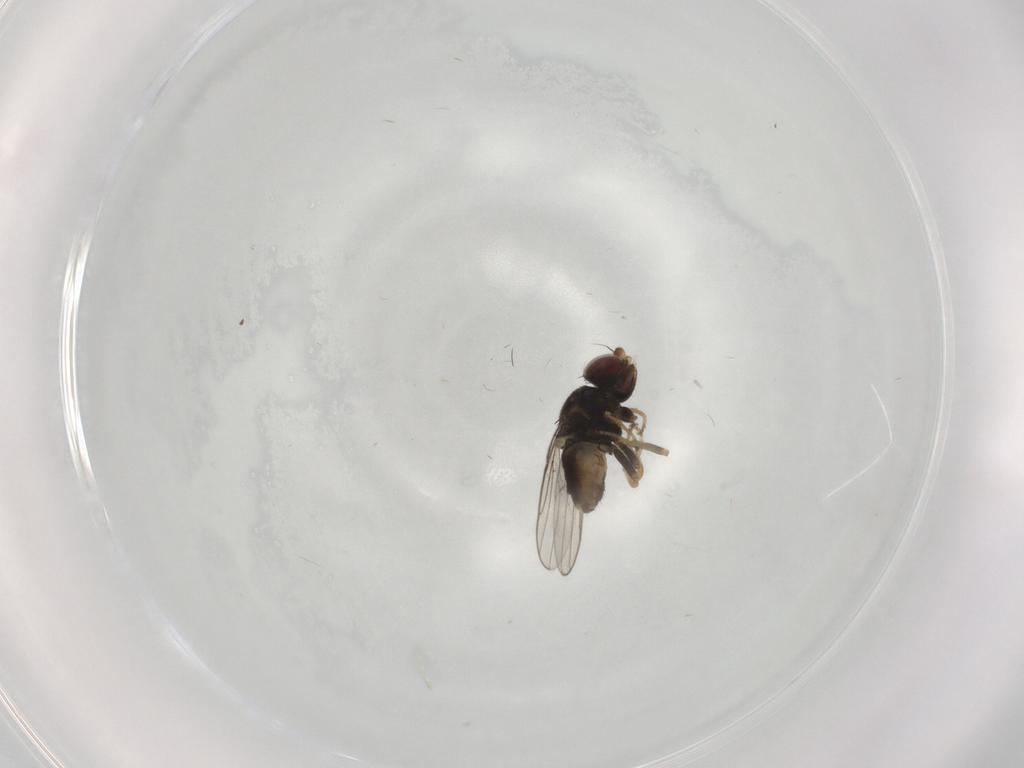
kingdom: Animalia
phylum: Arthropoda
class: Insecta
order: Diptera
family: Chloropidae
